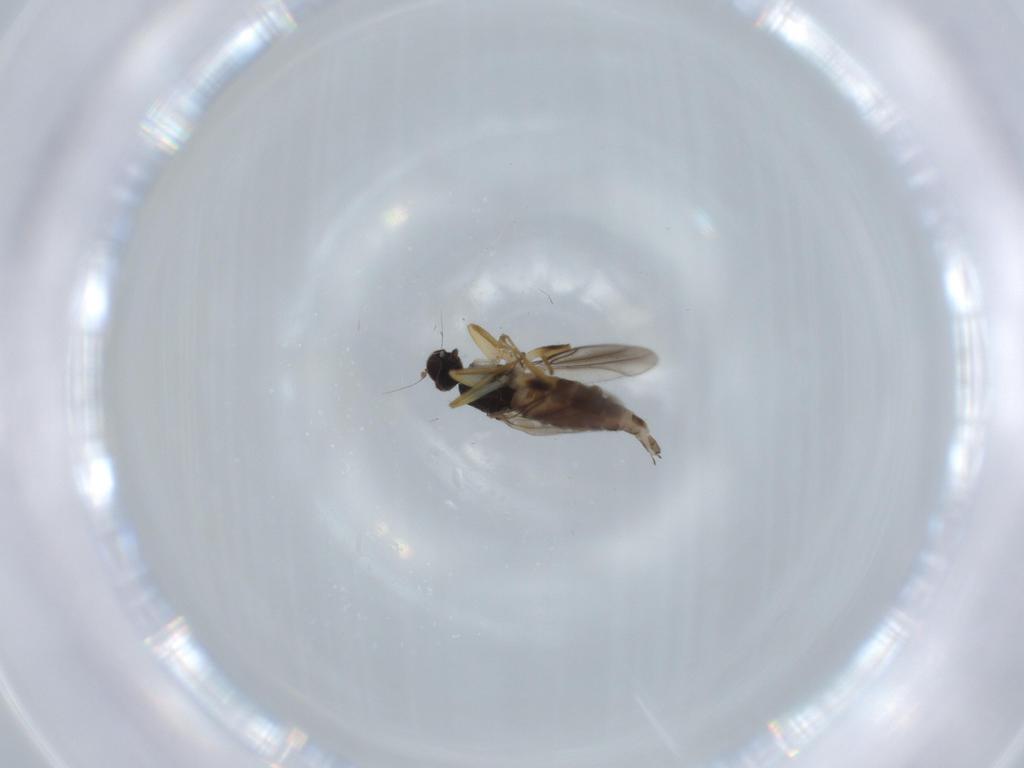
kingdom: Animalia
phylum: Arthropoda
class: Insecta
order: Diptera
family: Hybotidae
